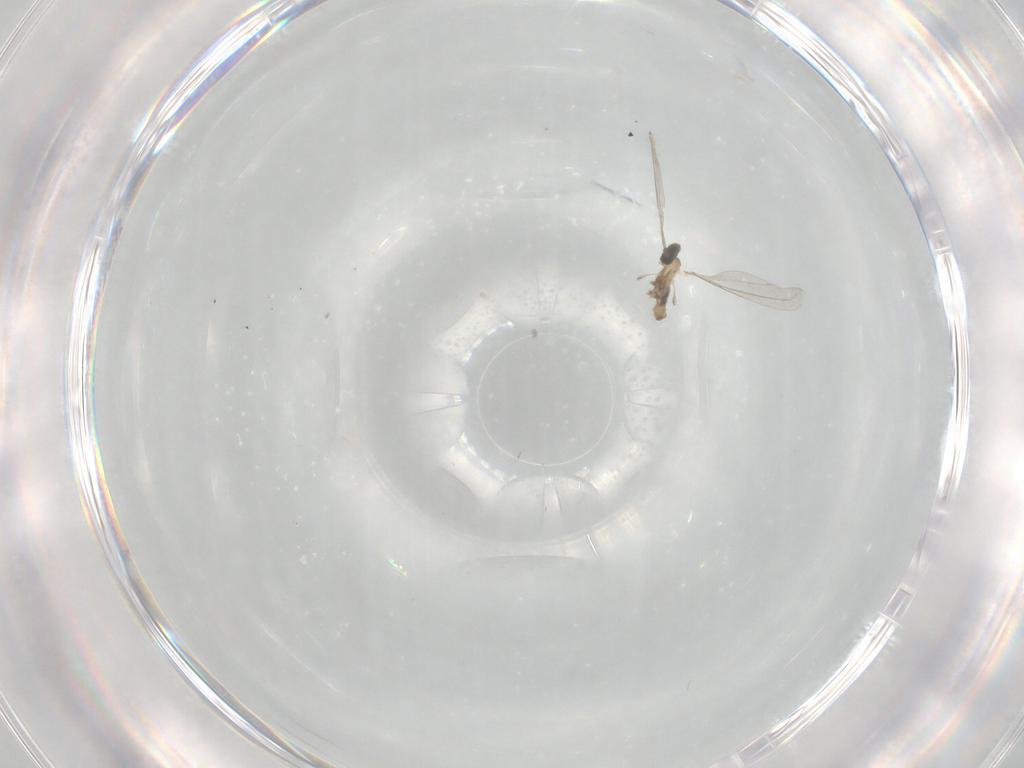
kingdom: Animalia
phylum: Arthropoda
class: Insecta
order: Diptera
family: Cecidomyiidae
